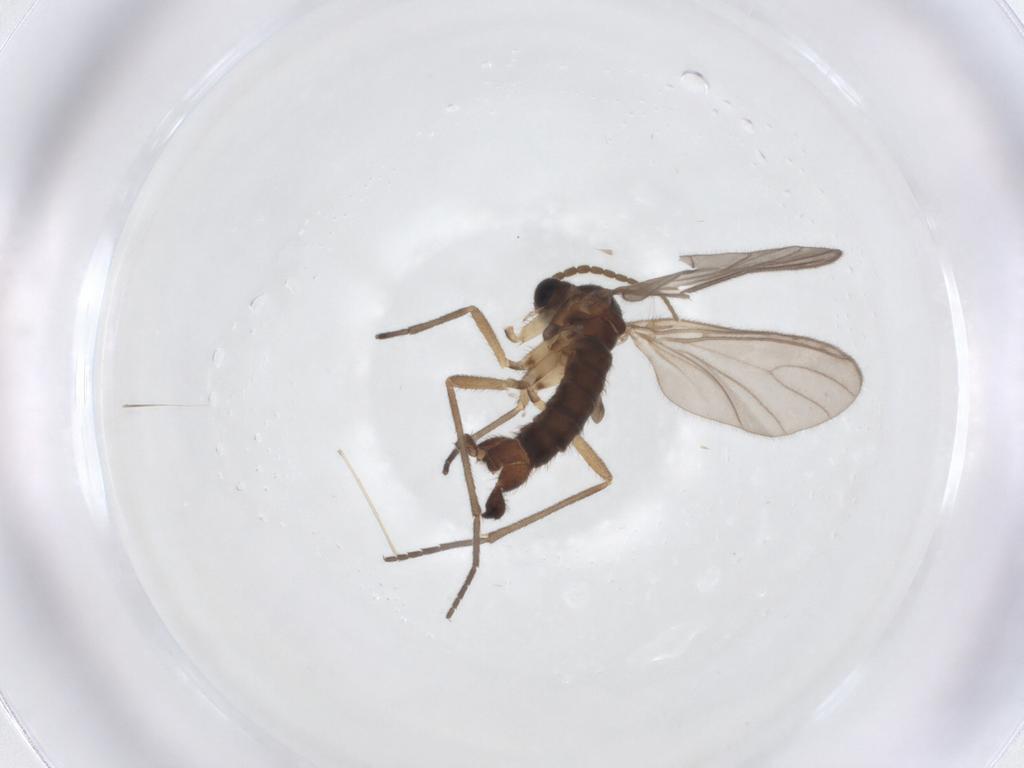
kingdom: Animalia
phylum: Arthropoda
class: Insecta
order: Diptera
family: Sciaridae
